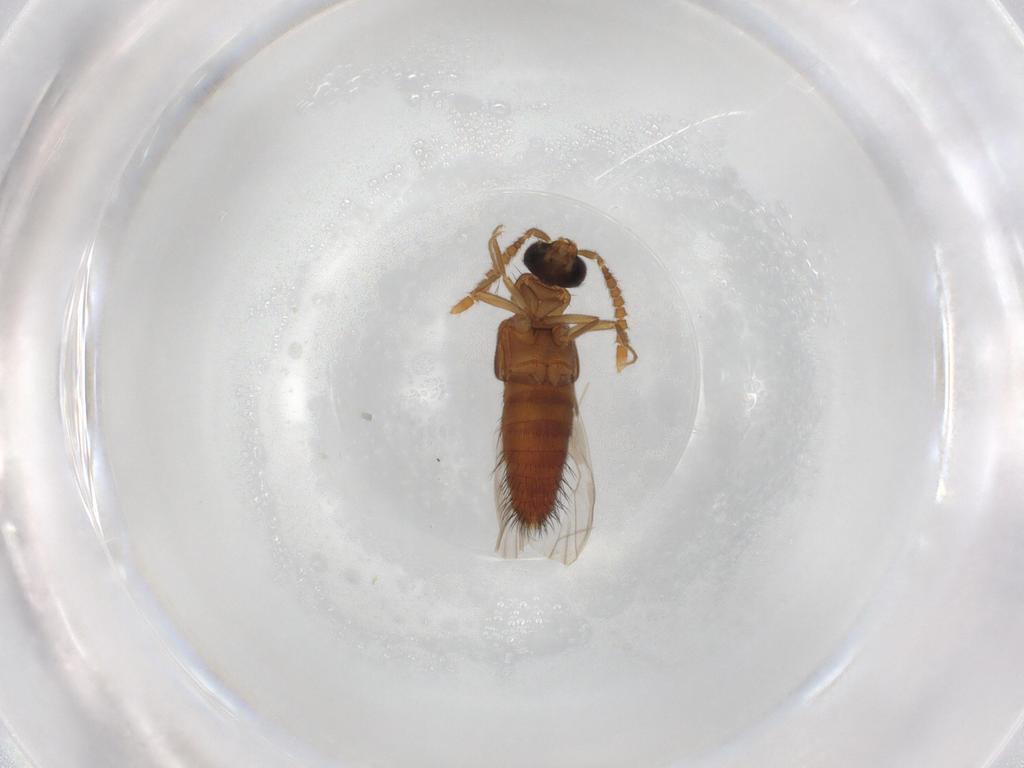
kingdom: Animalia
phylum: Arthropoda
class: Insecta
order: Coleoptera
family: Staphylinidae
